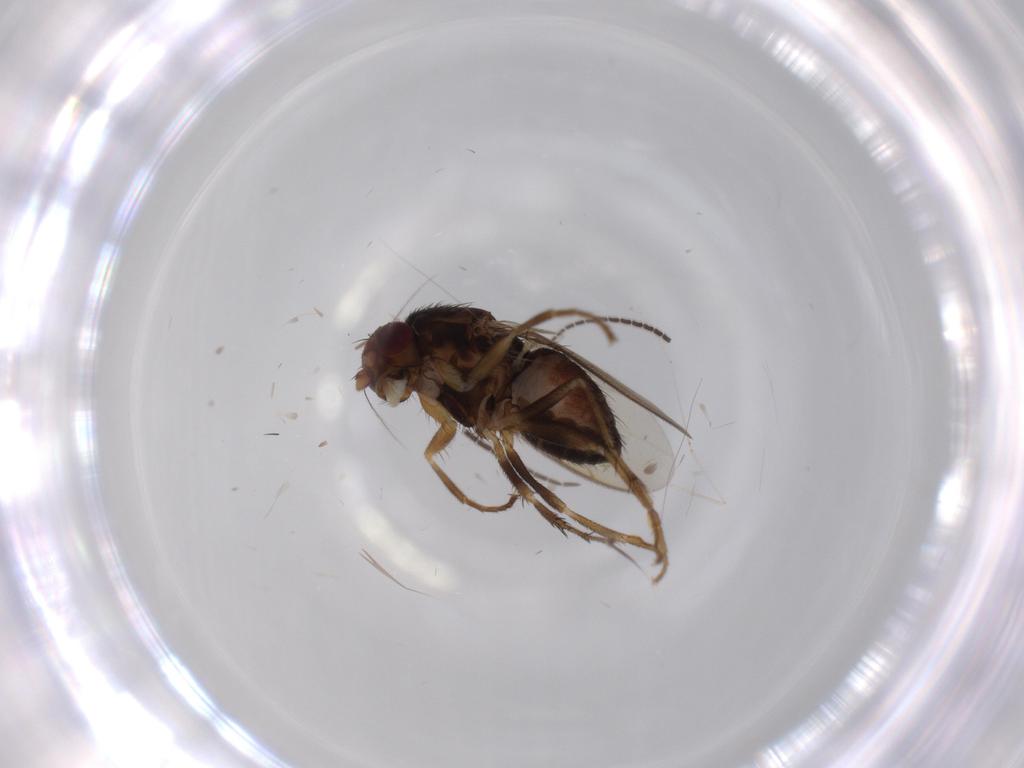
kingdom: Animalia
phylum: Arthropoda
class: Insecta
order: Diptera
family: Sphaeroceridae
